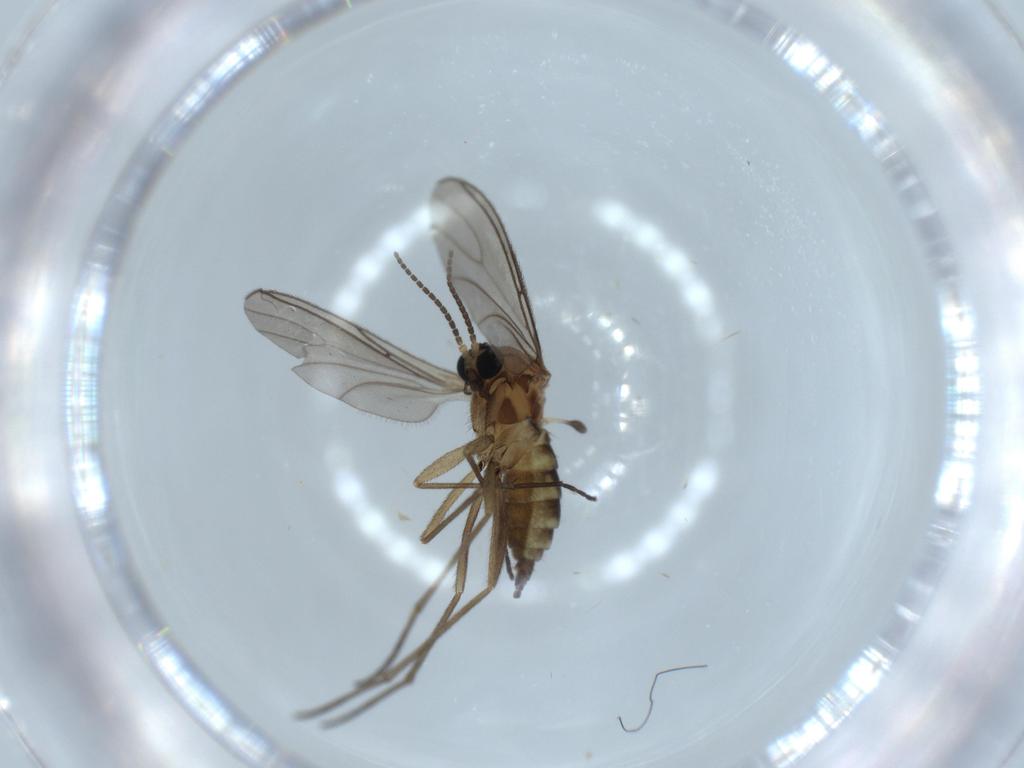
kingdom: Animalia
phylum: Arthropoda
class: Insecta
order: Diptera
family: Sciaridae
